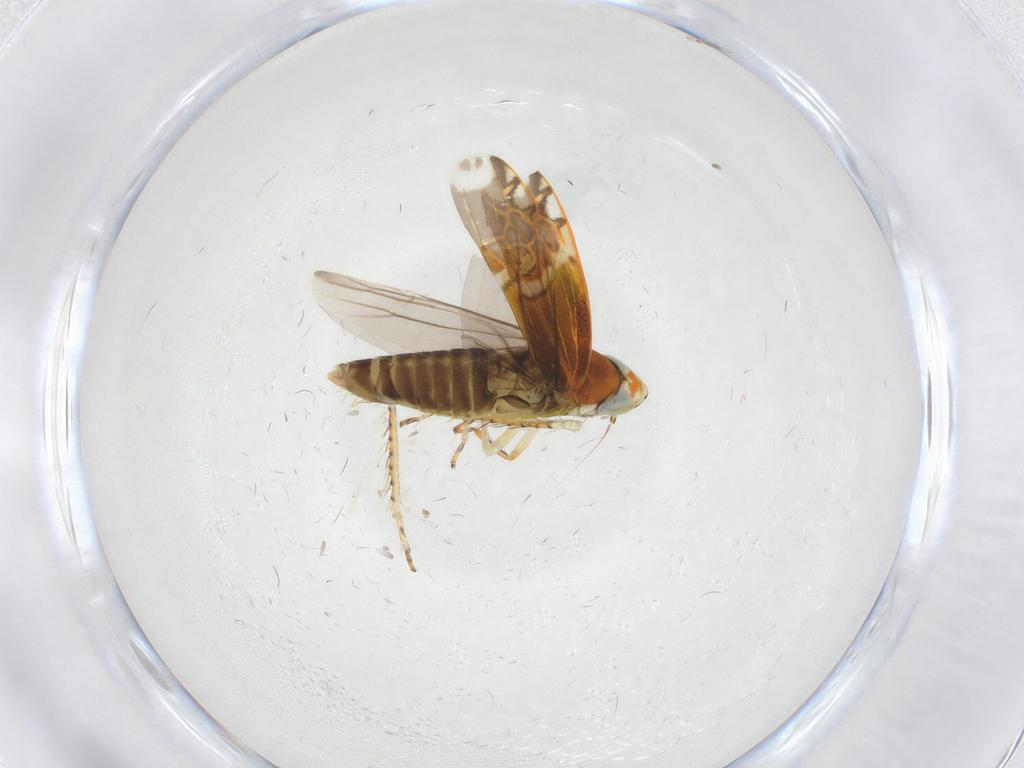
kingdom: Animalia
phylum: Arthropoda
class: Insecta
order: Hemiptera
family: Cicadellidae
